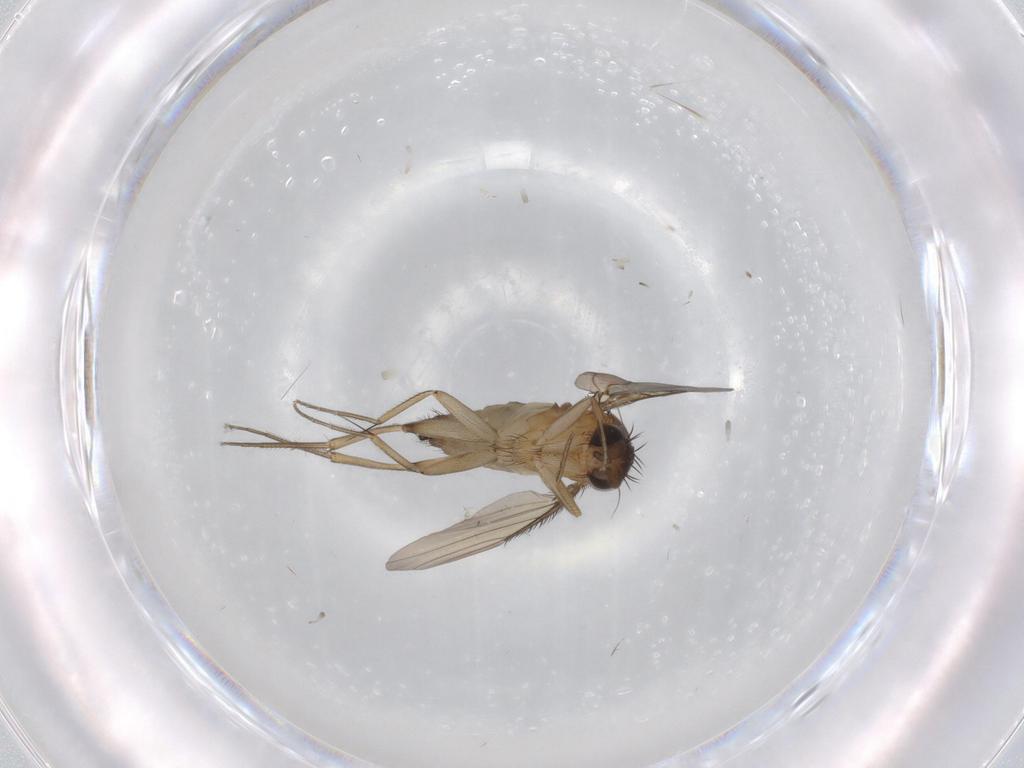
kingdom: Animalia
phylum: Arthropoda
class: Insecta
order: Diptera
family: Phoridae
